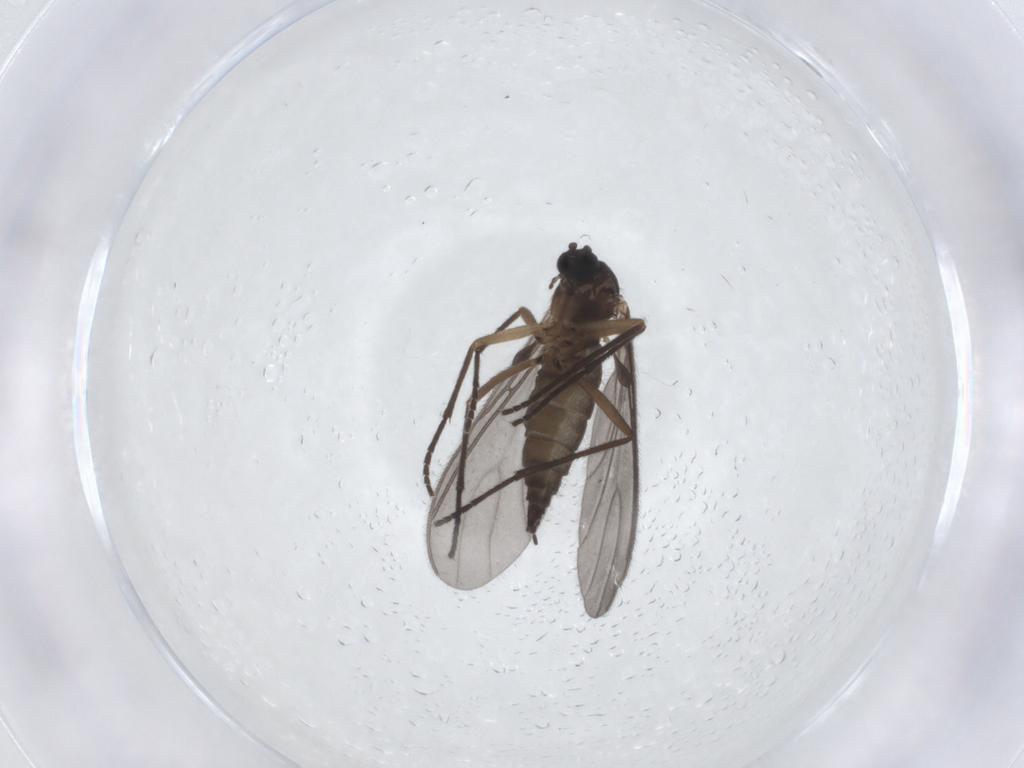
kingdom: Animalia
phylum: Arthropoda
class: Insecta
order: Diptera
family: Sciaridae
